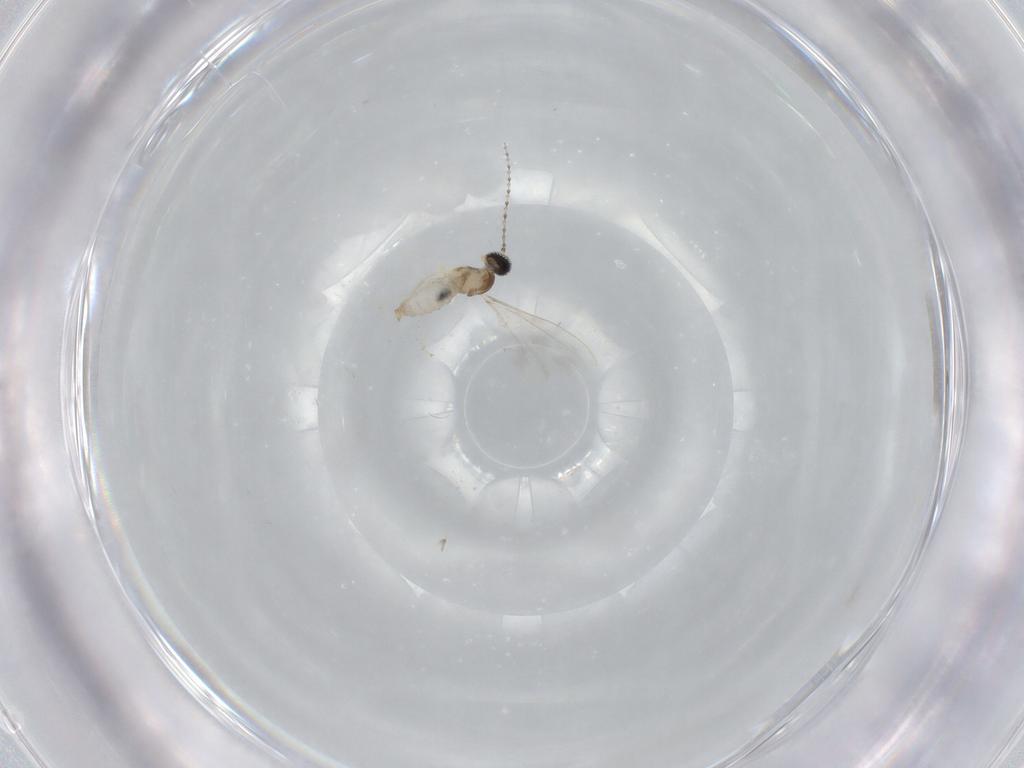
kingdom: Animalia
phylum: Arthropoda
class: Insecta
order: Diptera
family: Cecidomyiidae
